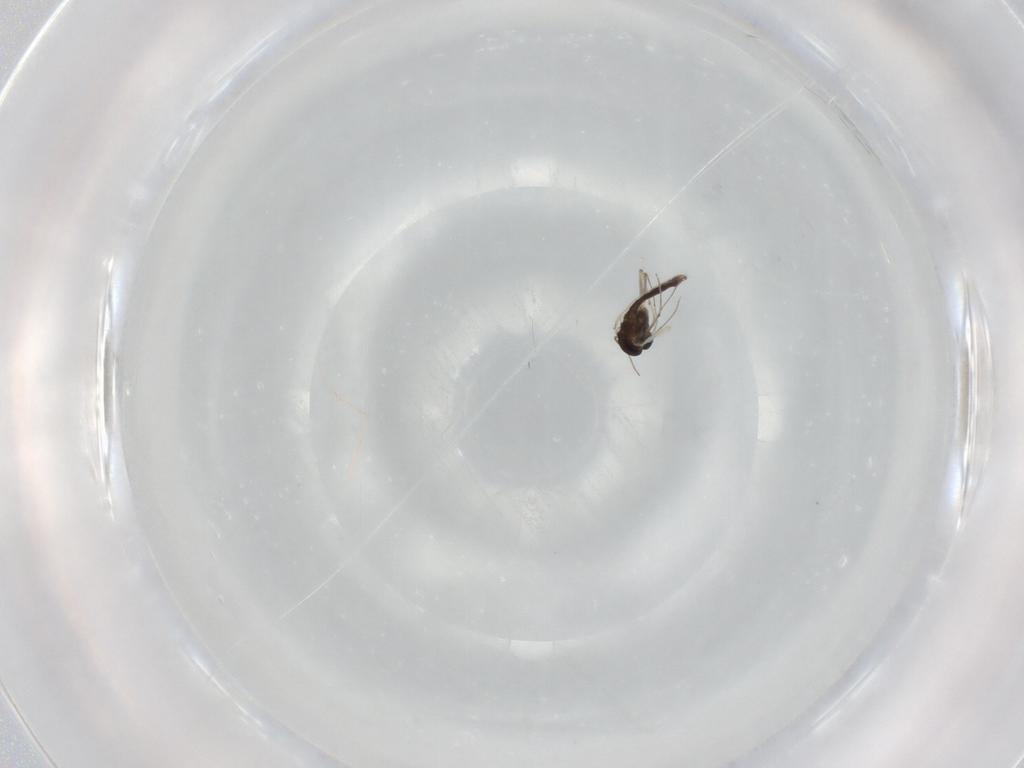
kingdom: Animalia
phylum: Arthropoda
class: Insecta
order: Diptera
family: Chironomidae
